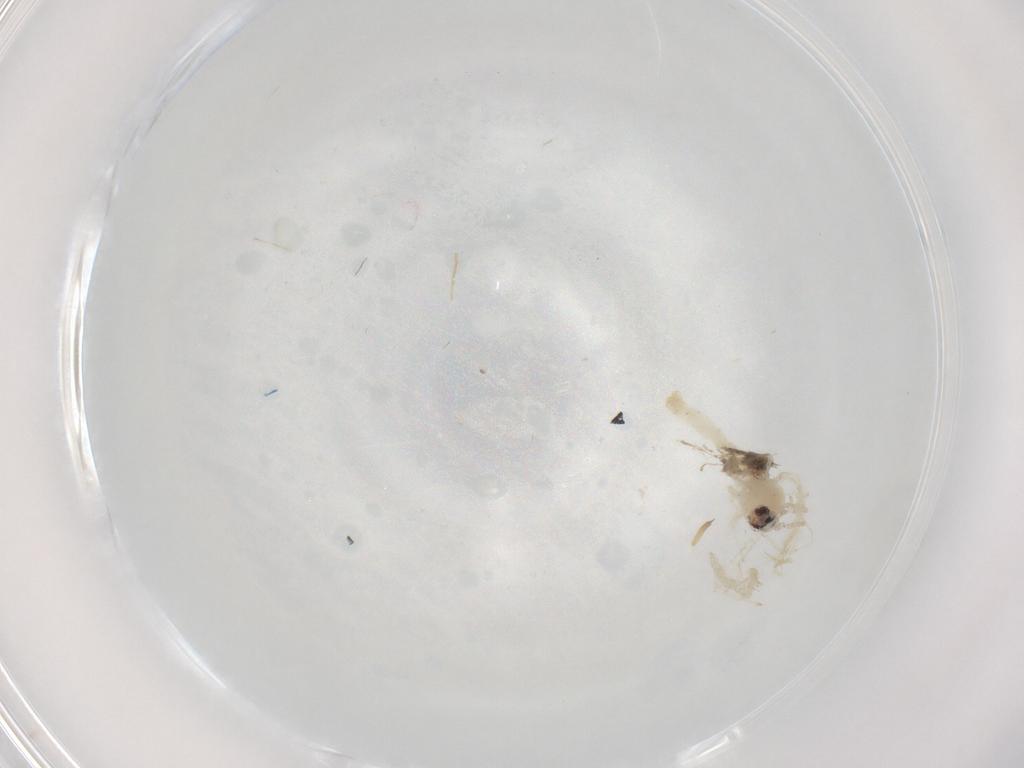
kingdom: Animalia
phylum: Arthropoda
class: Insecta
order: Diptera
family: Cecidomyiidae
